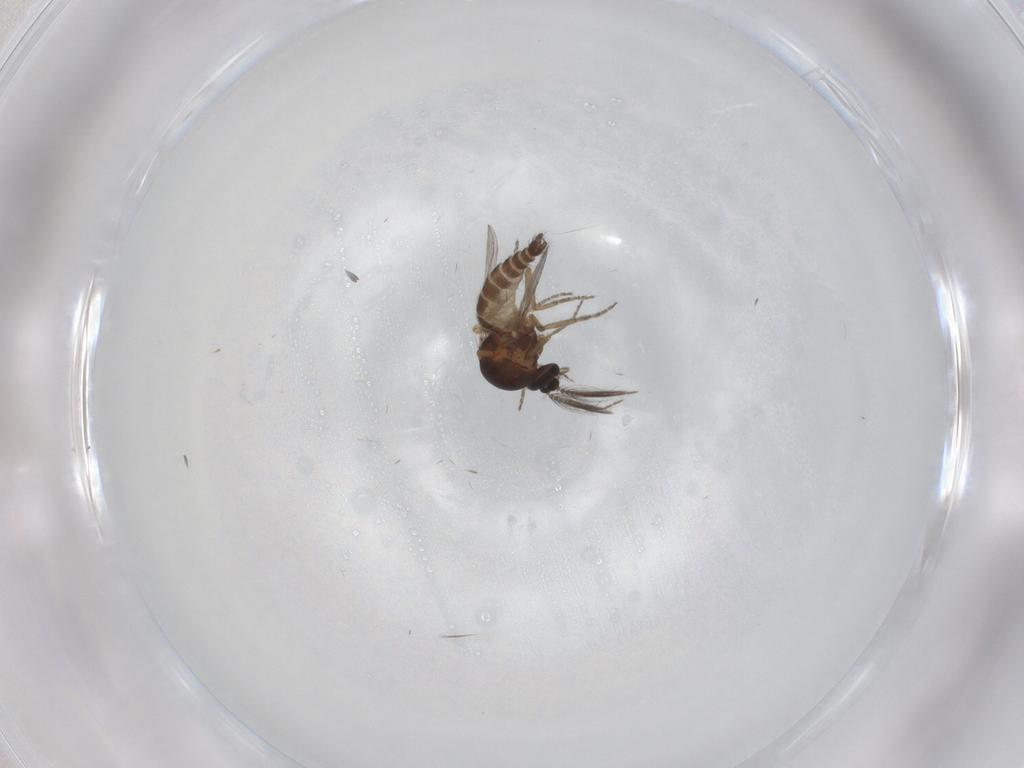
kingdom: Animalia
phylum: Arthropoda
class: Insecta
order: Diptera
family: Ceratopogonidae
